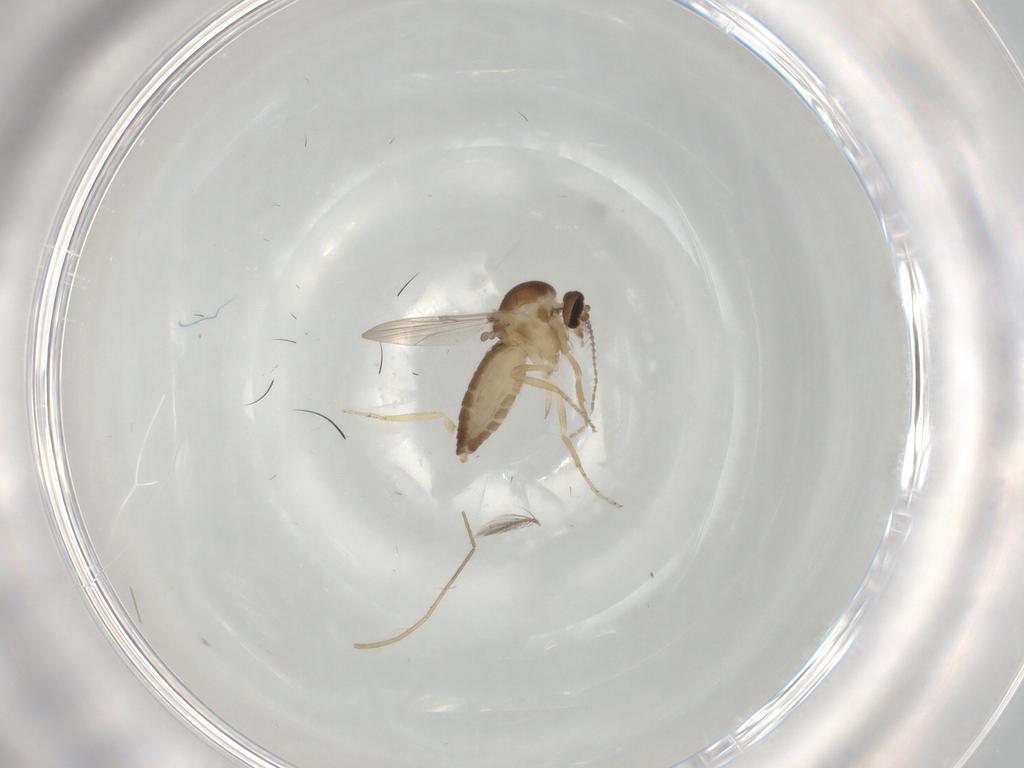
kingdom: Animalia
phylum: Arthropoda
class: Insecta
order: Diptera
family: Ceratopogonidae
